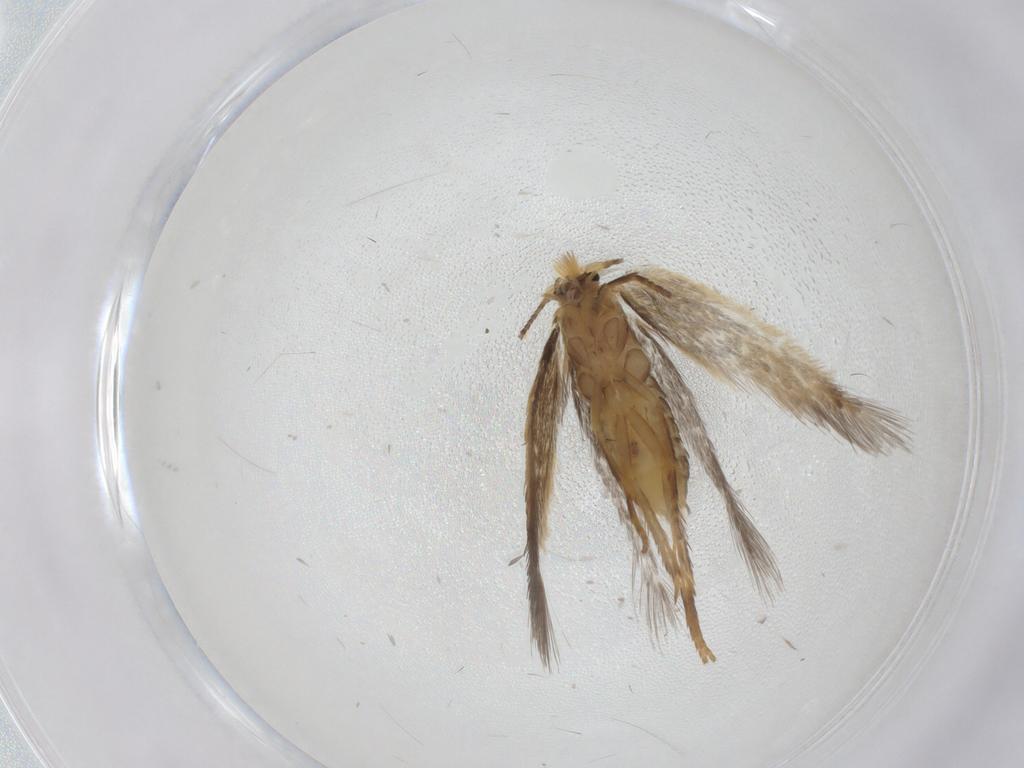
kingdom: Animalia
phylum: Arthropoda
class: Insecta
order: Lepidoptera
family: Nepticulidae
